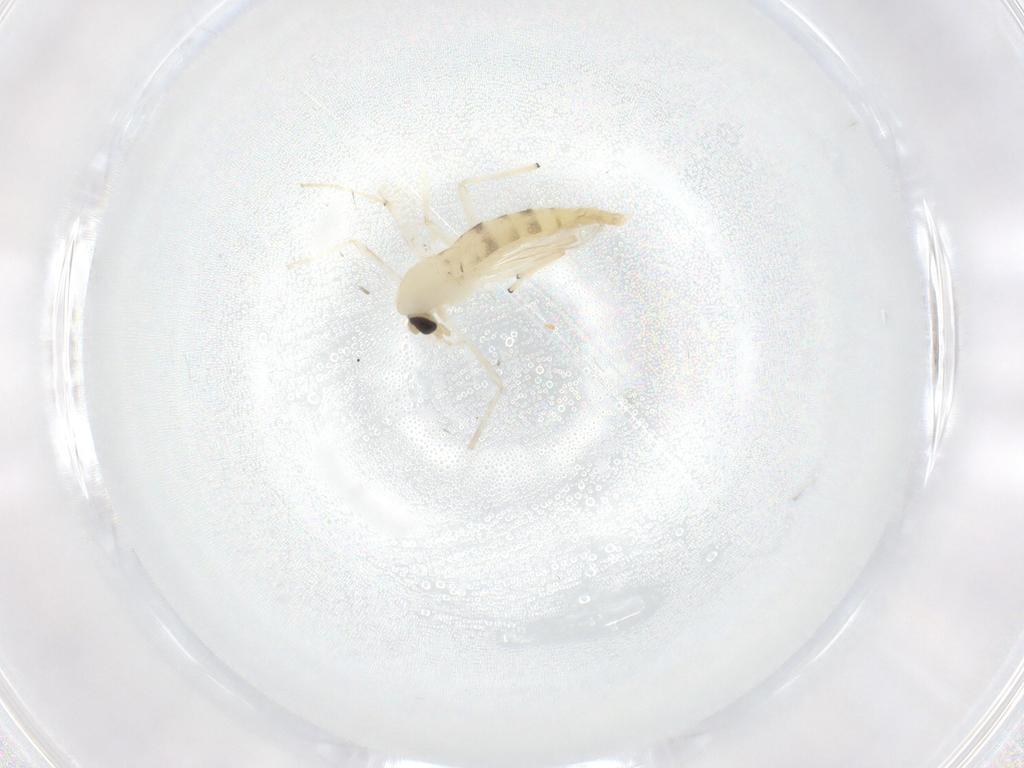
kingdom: Animalia
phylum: Arthropoda
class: Insecta
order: Diptera
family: Chironomidae
